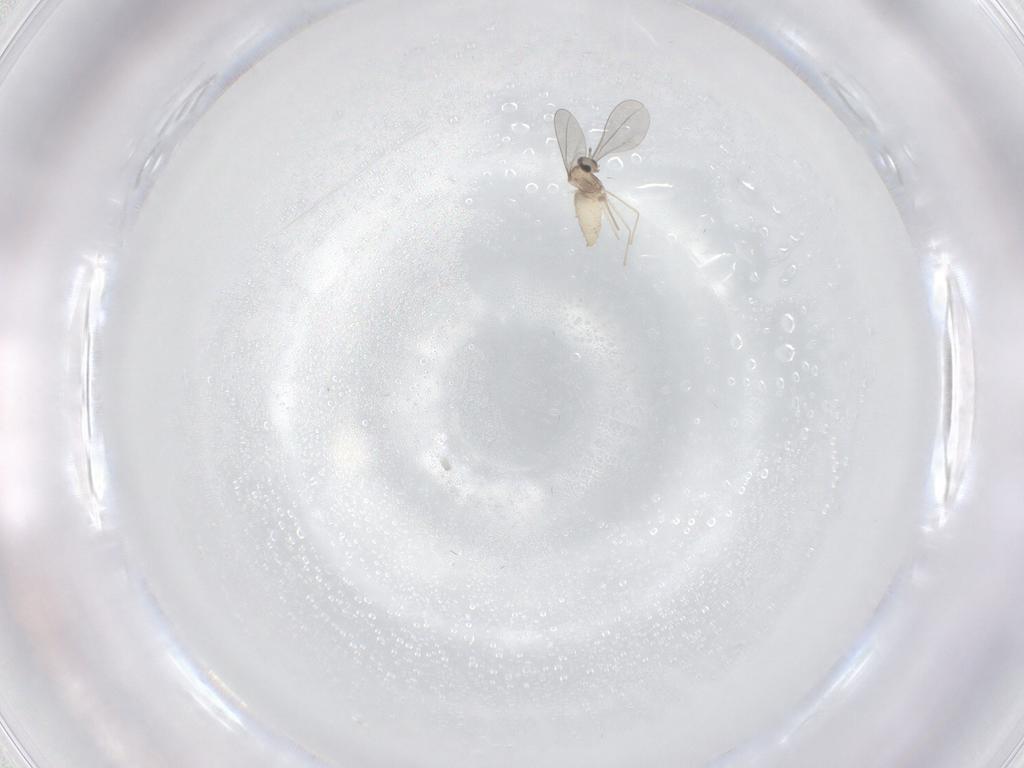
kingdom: Animalia
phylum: Arthropoda
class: Insecta
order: Diptera
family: Cecidomyiidae
